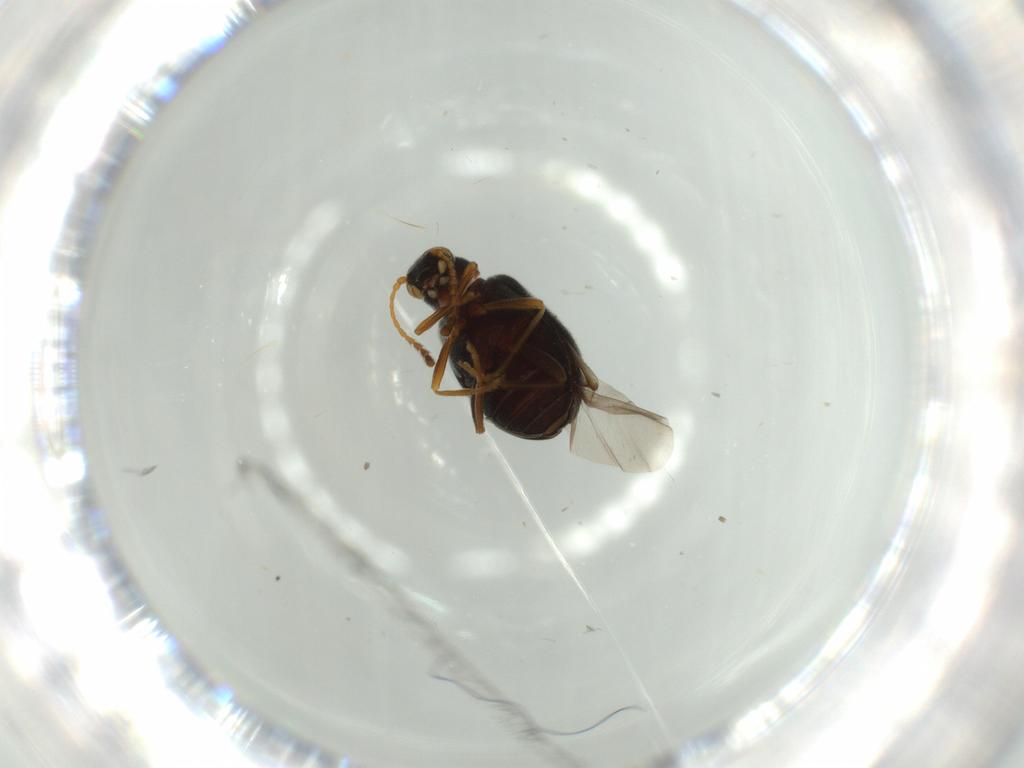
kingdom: Animalia
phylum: Arthropoda
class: Insecta
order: Coleoptera
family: Aderidae
